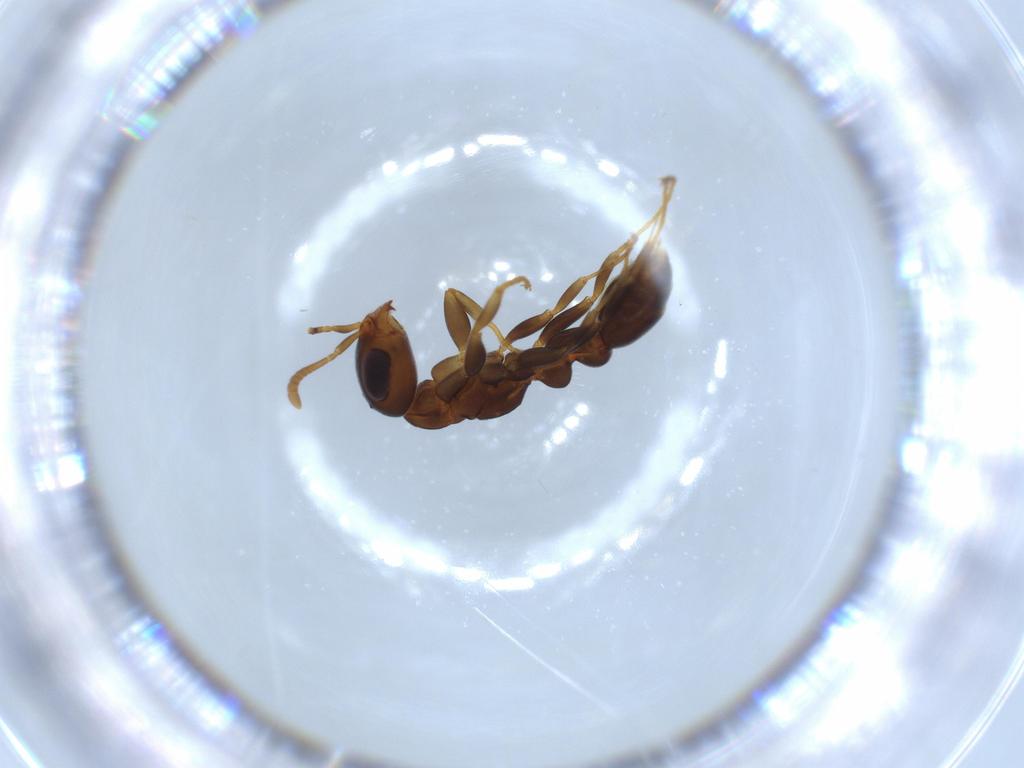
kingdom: Animalia
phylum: Arthropoda
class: Insecta
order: Hymenoptera
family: Formicidae
